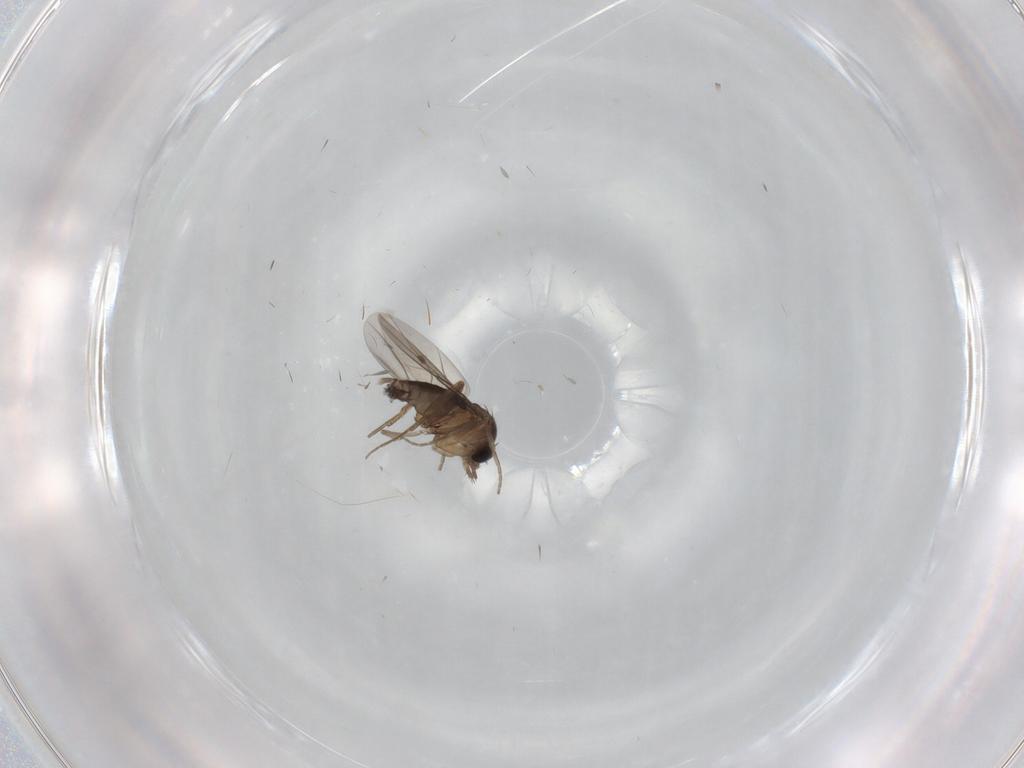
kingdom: Animalia
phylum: Arthropoda
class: Insecta
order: Diptera
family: Phoridae
